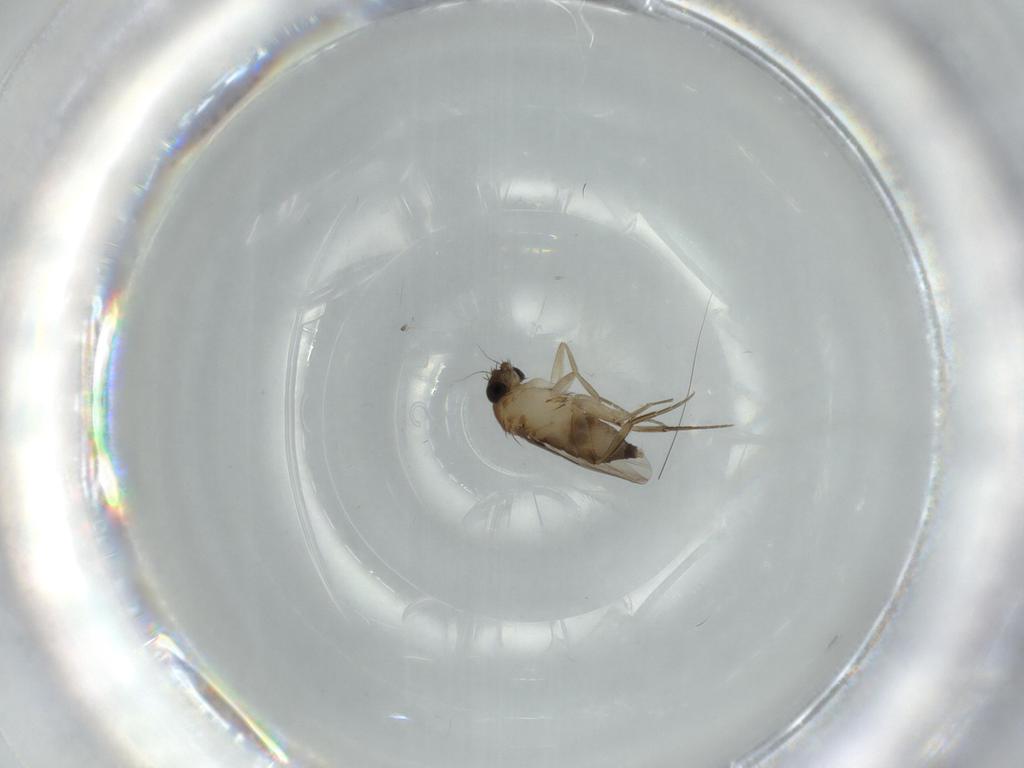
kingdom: Animalia
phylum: Arthropoda
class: Insecta
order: Diptera
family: Phoridae
